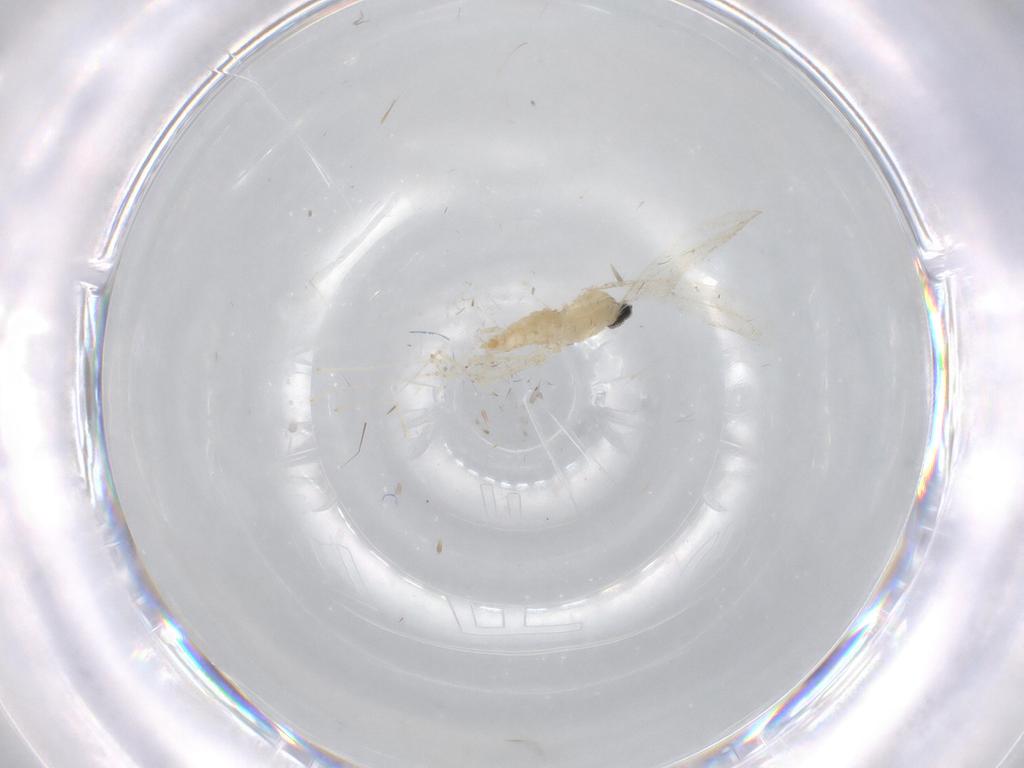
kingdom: Animalia
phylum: Arthropoda
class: Insecta
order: Diptera
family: Cecidomyiidae
